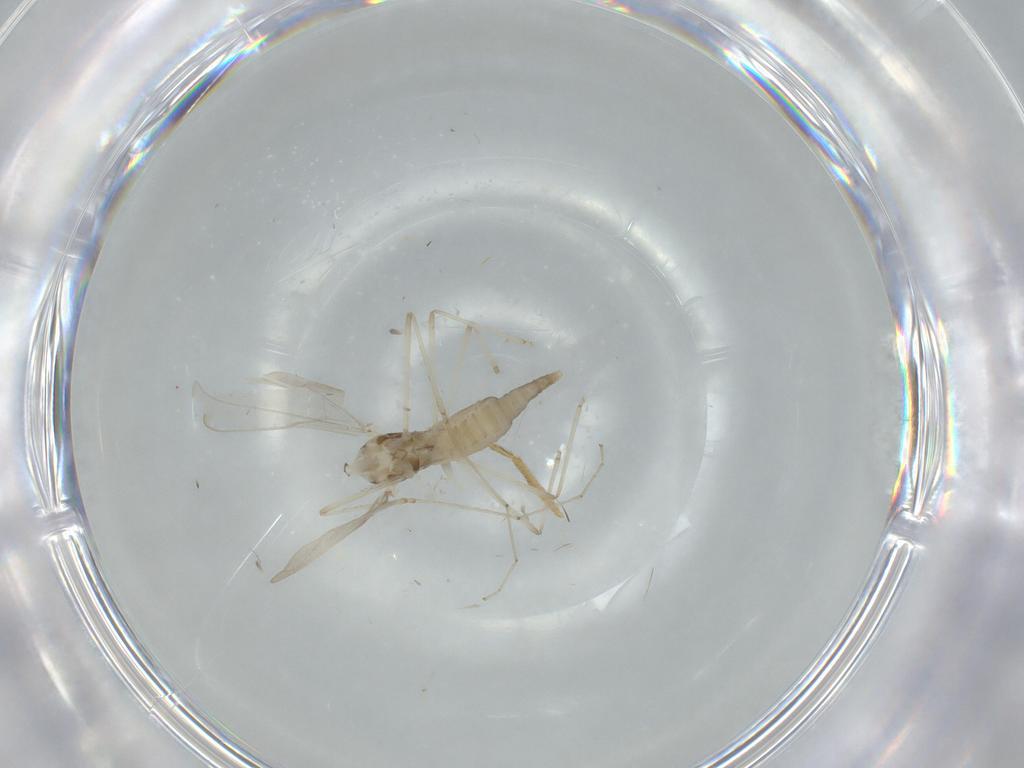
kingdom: Animalia
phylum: Arthropoda
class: Insecta
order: Diptera
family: Cecidomyiidae
